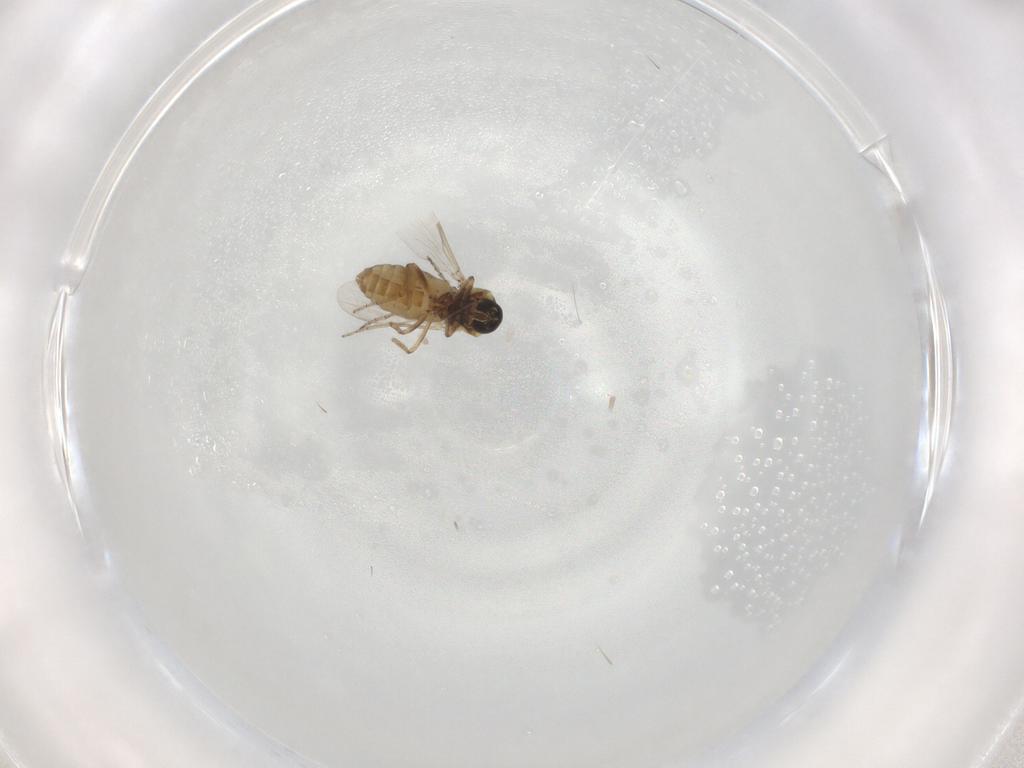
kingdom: Animalia
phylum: Arthropoda
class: Insecta
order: Diptera
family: Ceratopogonidae
